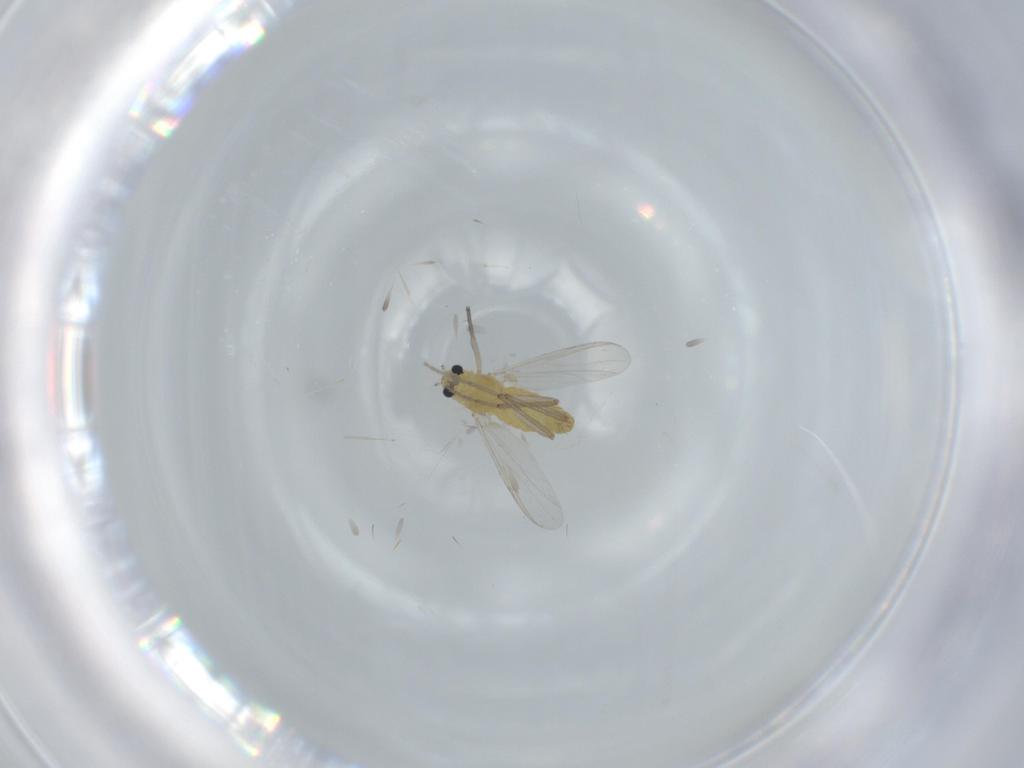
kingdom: Animalia
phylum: Arthropoda
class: Insecta
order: Diptera
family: Chironomidae
